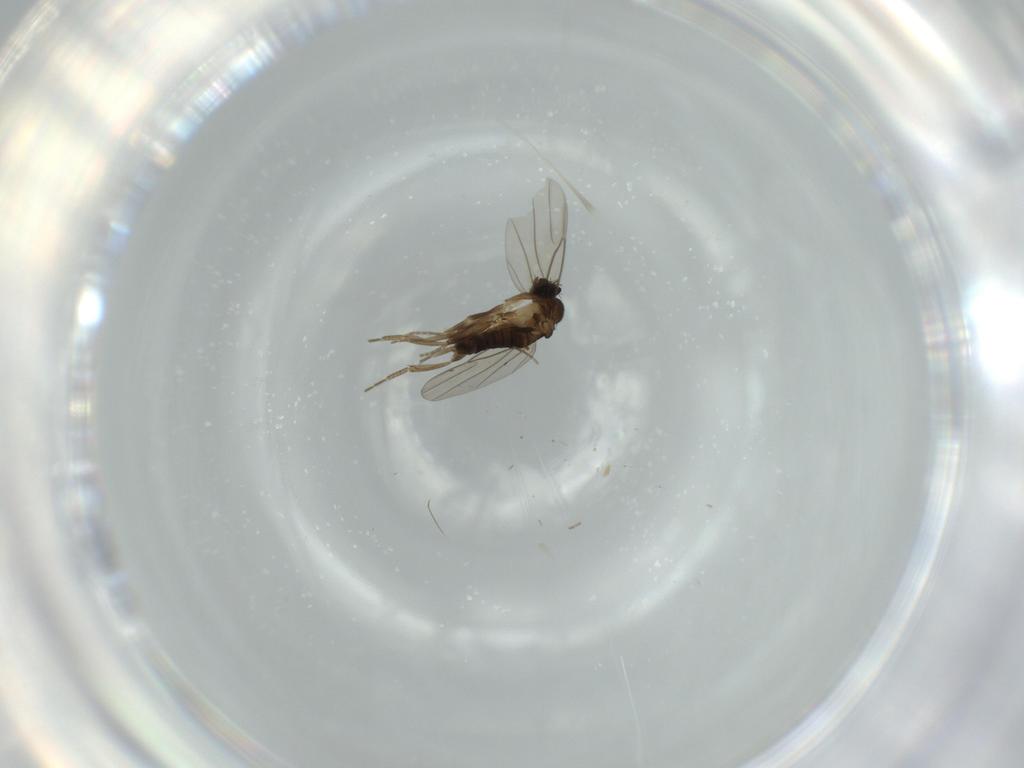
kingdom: Animalia
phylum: Arthropoda
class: Insecta
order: Diptera
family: Phoridae
